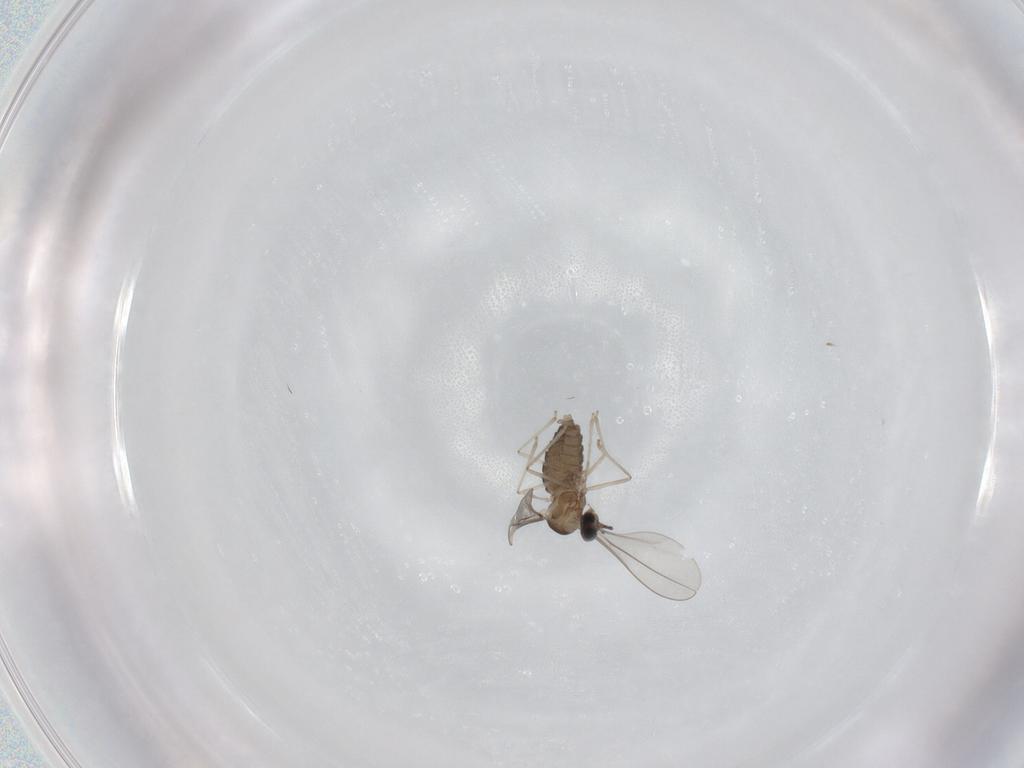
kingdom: Animalia
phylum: Arthropoda
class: Insecta
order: Diptera
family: Cecidomyiidae
